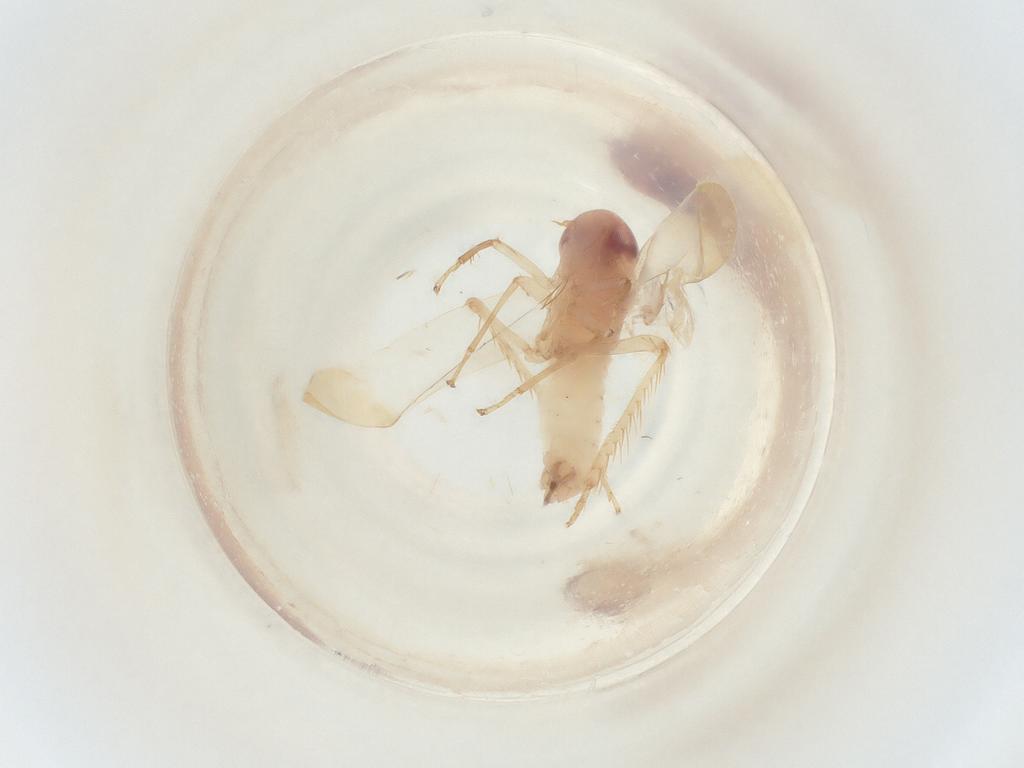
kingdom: Animalia
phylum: Arthropoda
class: Insecta
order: Hemiptera
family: Cicadellidae
